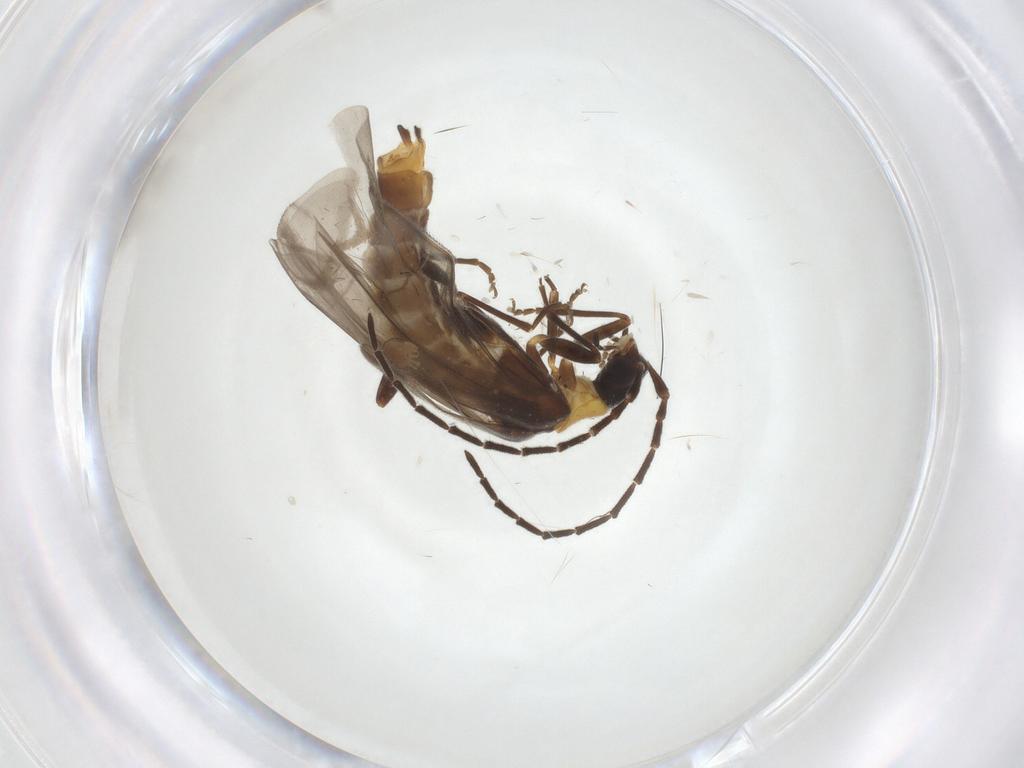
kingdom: Animalia
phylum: Arthropoda
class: Insecta
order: Coleoptera
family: Cantharidae
